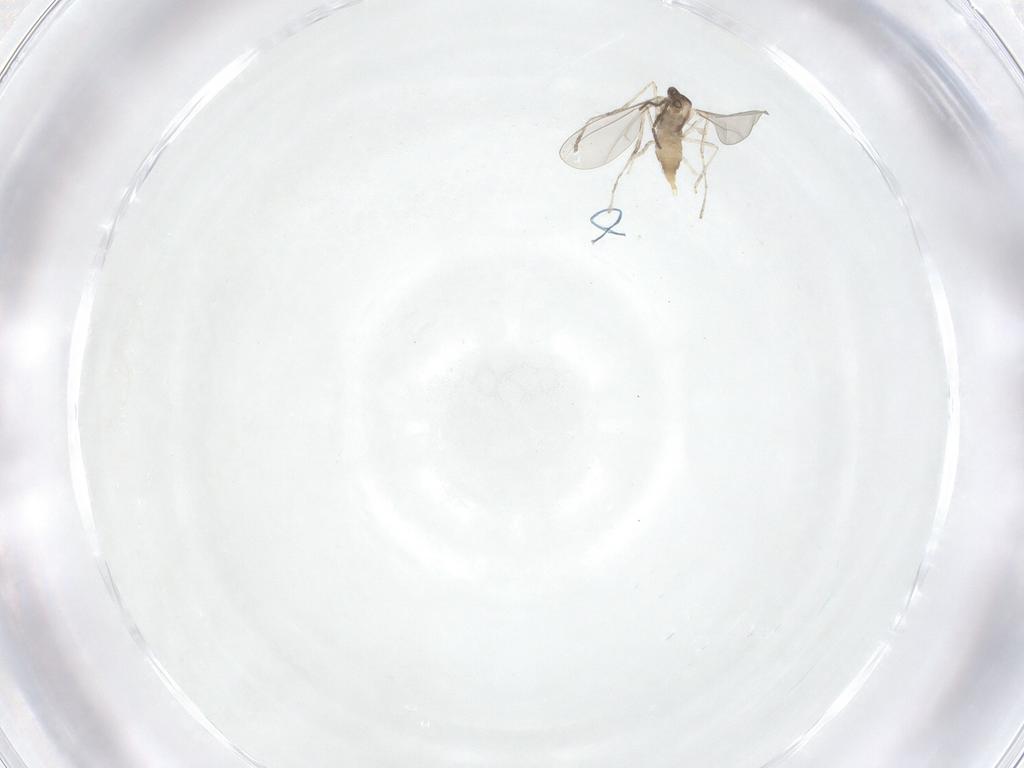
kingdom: Animalia
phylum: Arthropoda
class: Insecta
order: Diptera
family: Cecidomyiidae
